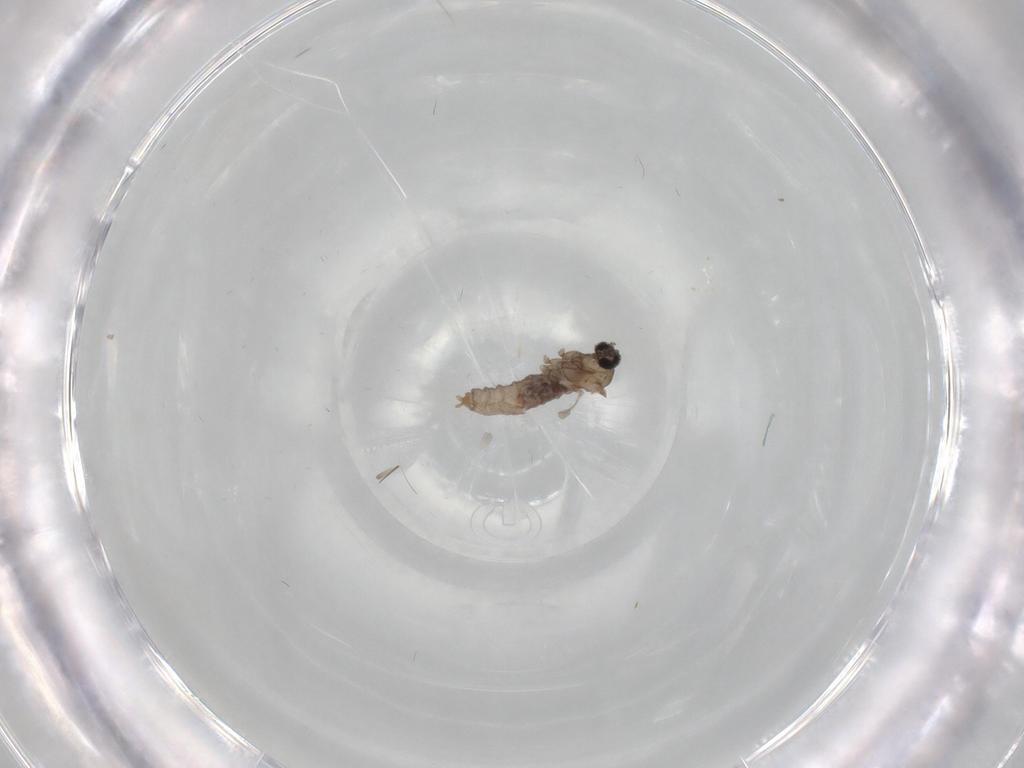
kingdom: Animalia
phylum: Arthropoda
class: Insecta
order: Diptera
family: Cecidomyiidae
